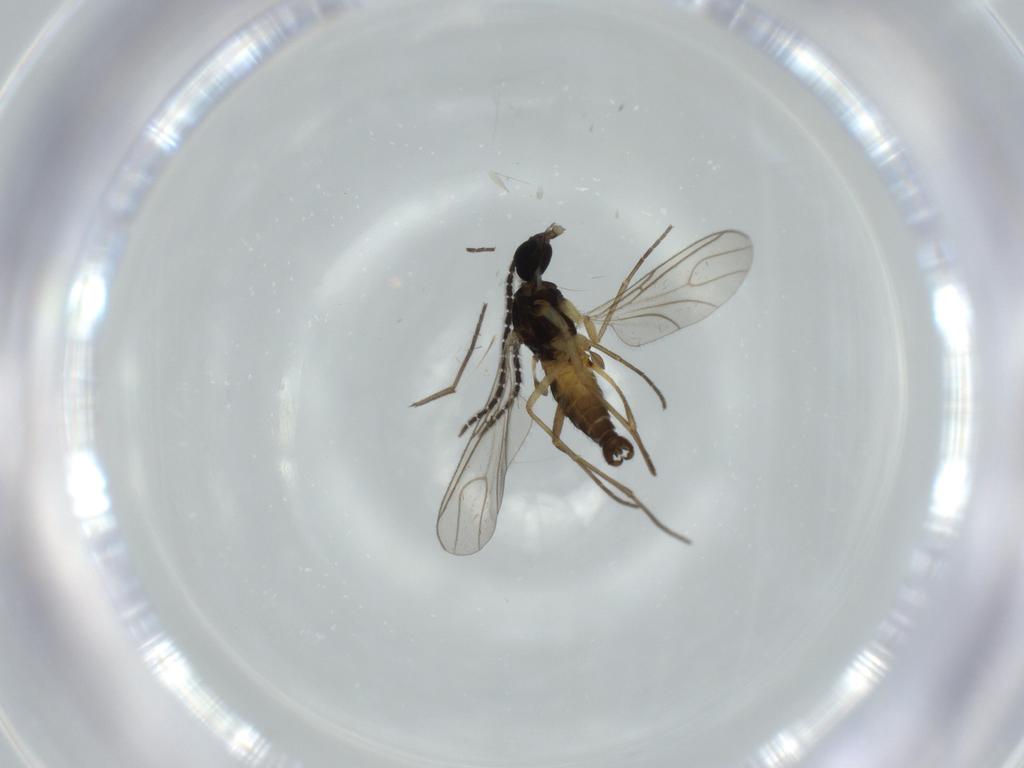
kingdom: Animalia
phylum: Arthropoda
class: Insecta
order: Diptera
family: Sciaridae
